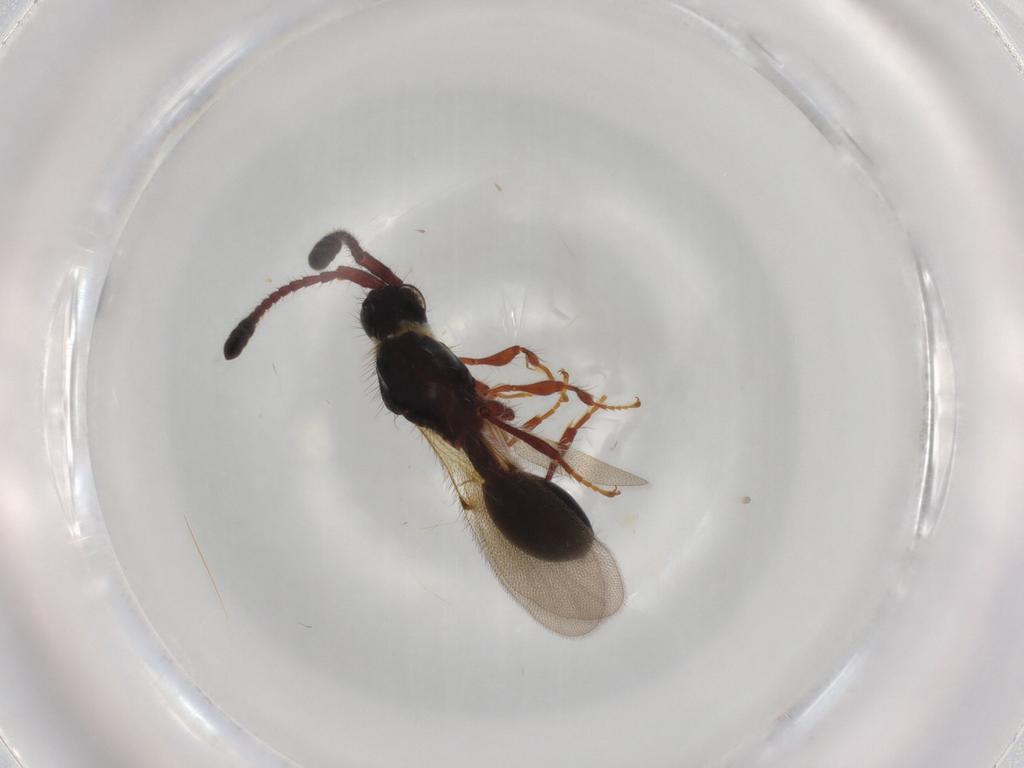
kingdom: Animalia
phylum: Arthropoda
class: Insecta
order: Hymenoptera
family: Diapriidae
